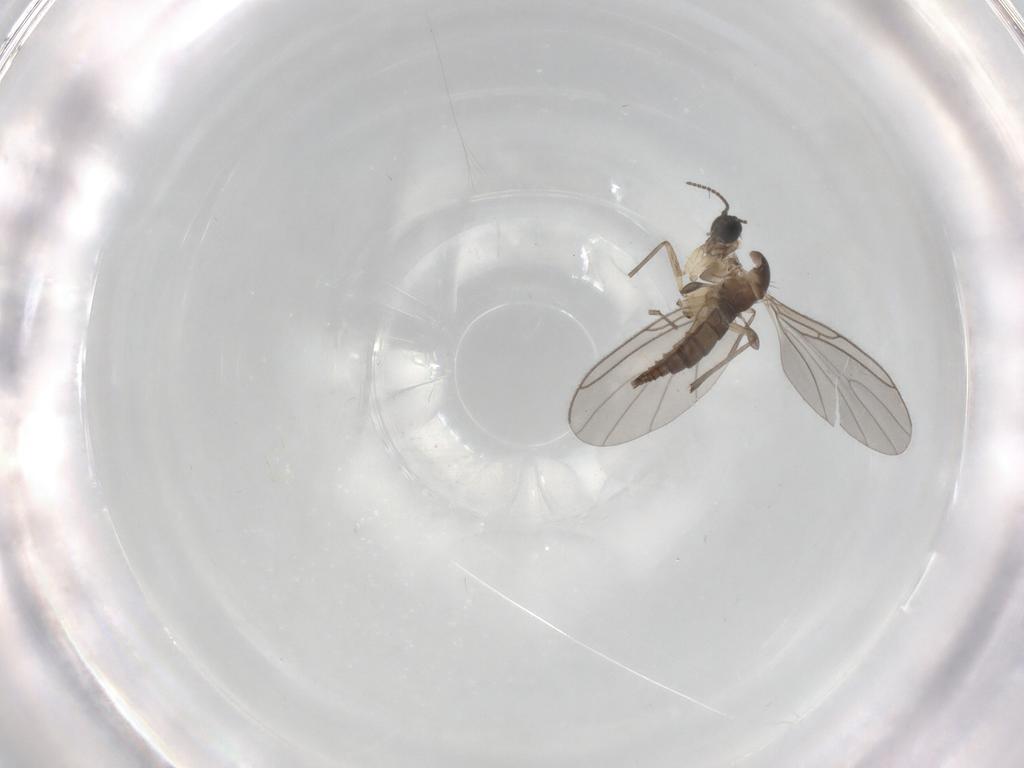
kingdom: Animalia
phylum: Arthropoda
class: Insecta
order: Diptera
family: Sciaridae
